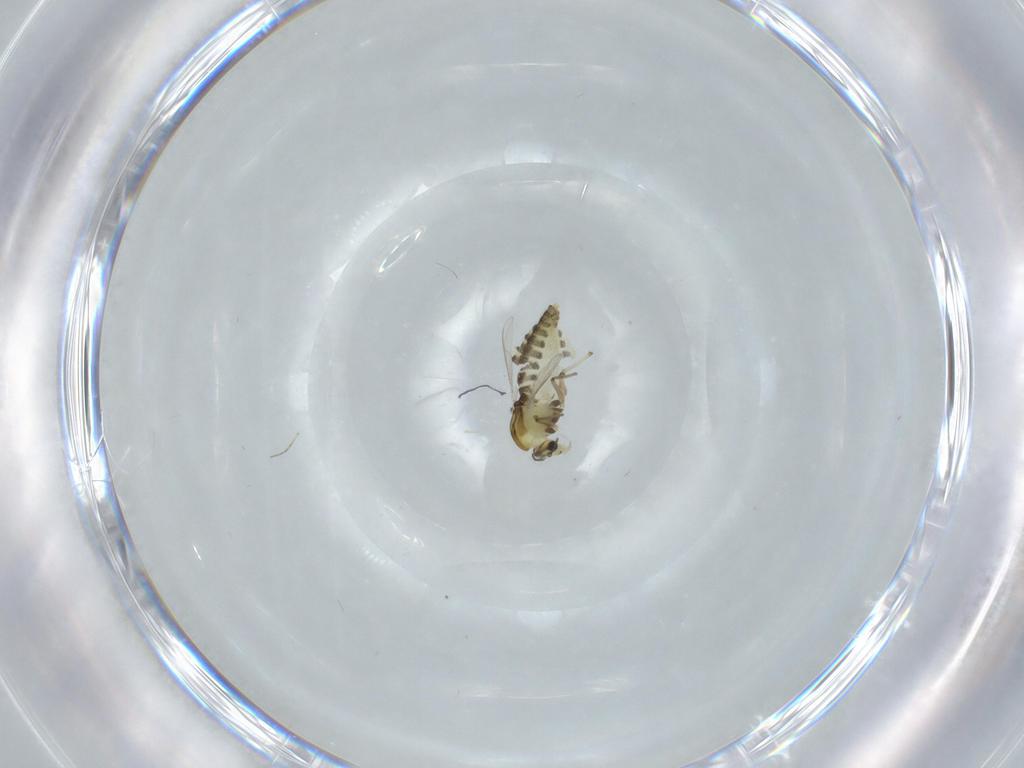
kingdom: Animalia
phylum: Arthropoda
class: Insecta
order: Diptera
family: Chironomidae
